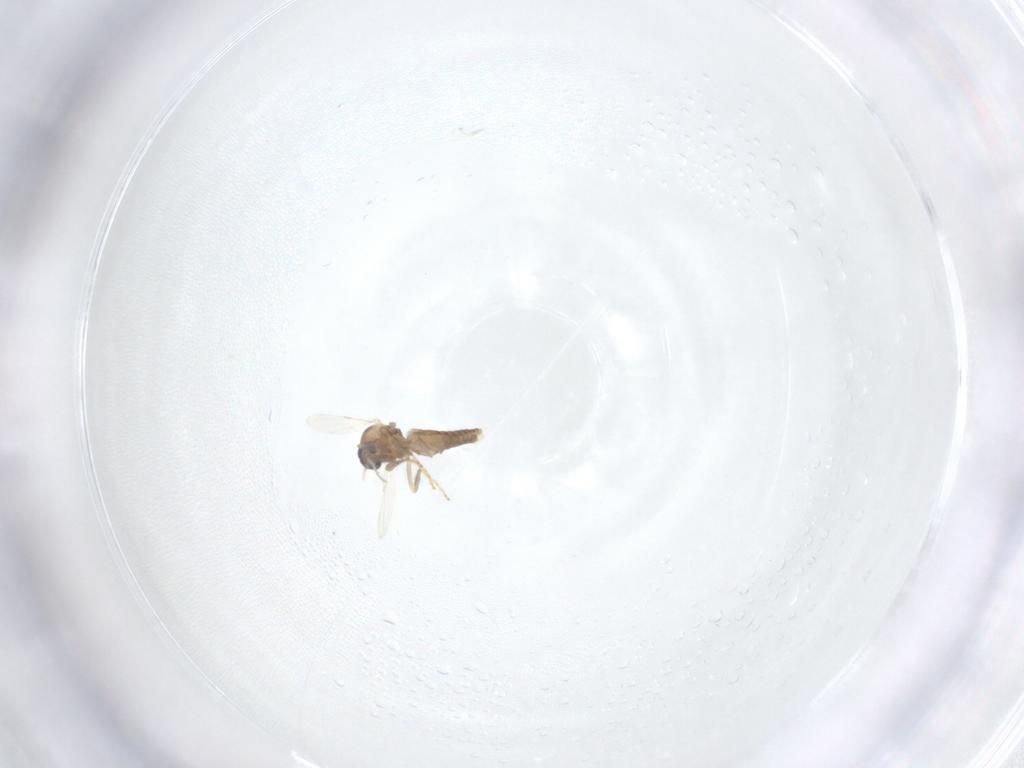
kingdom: Animalia
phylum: Arthropoda
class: Insecta
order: Diptera
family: Ceratopogonidae
